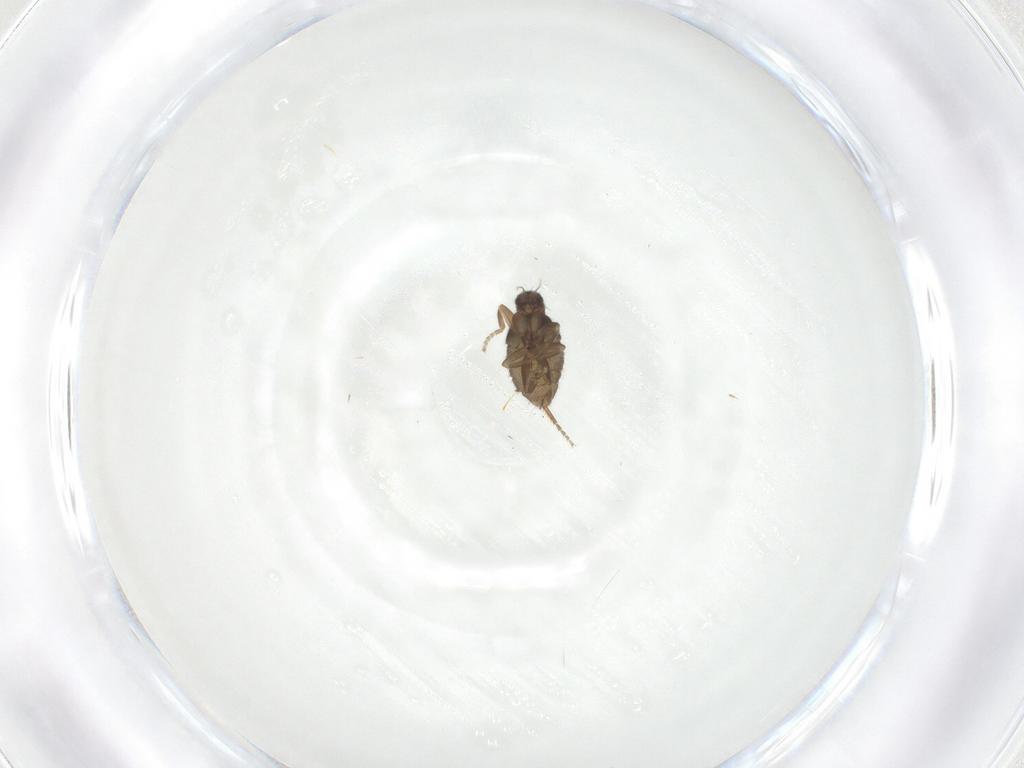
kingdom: Animalia
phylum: Arthropoda
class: Insecta
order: Diptera
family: Phoridae
